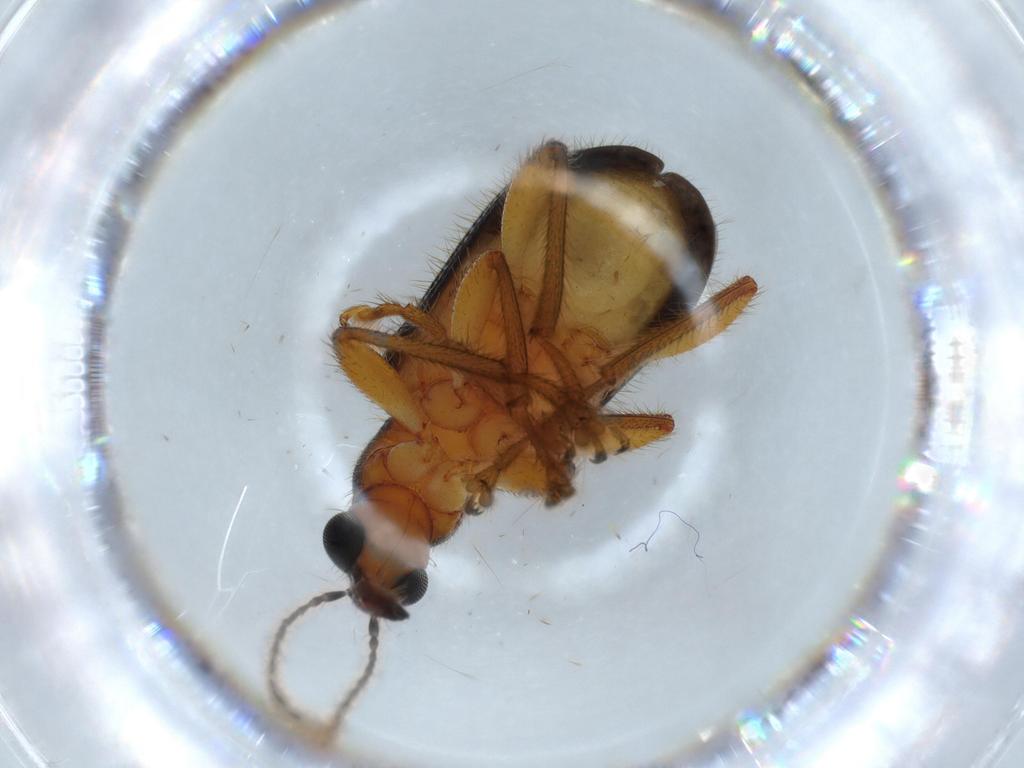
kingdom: Animalia
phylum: Arthropoda
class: Insecta
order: Coleoptera
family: Attelabidae
